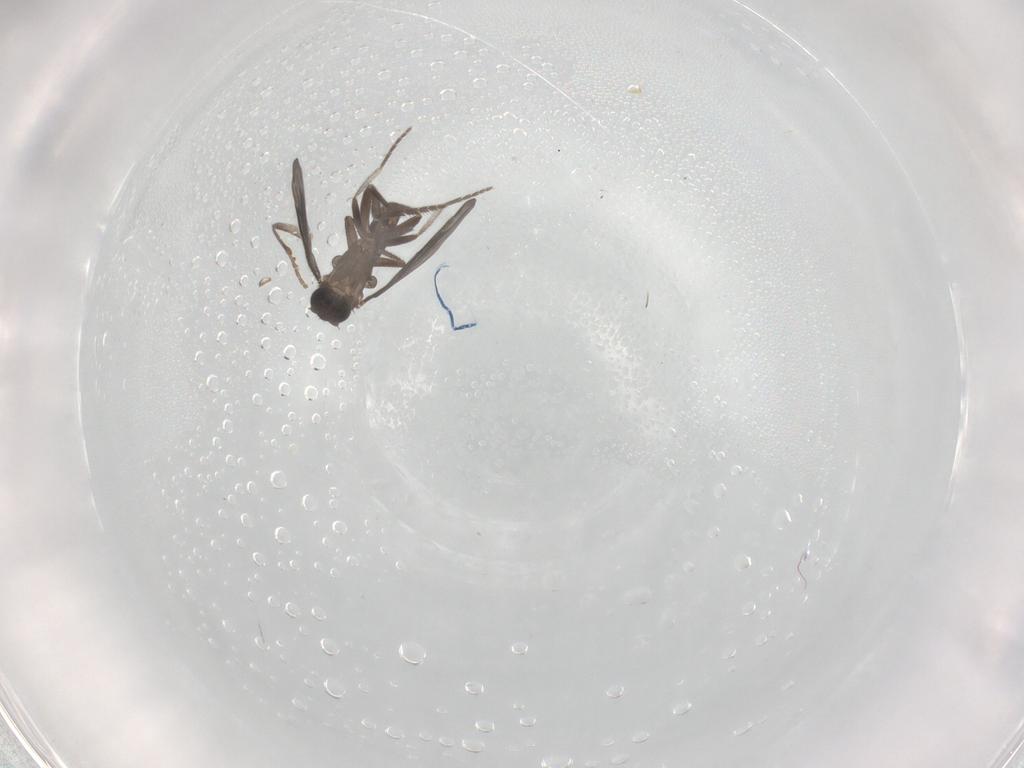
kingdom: Animalia
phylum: Arthropoda
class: Insecta
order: Diptera
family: Phoridae
